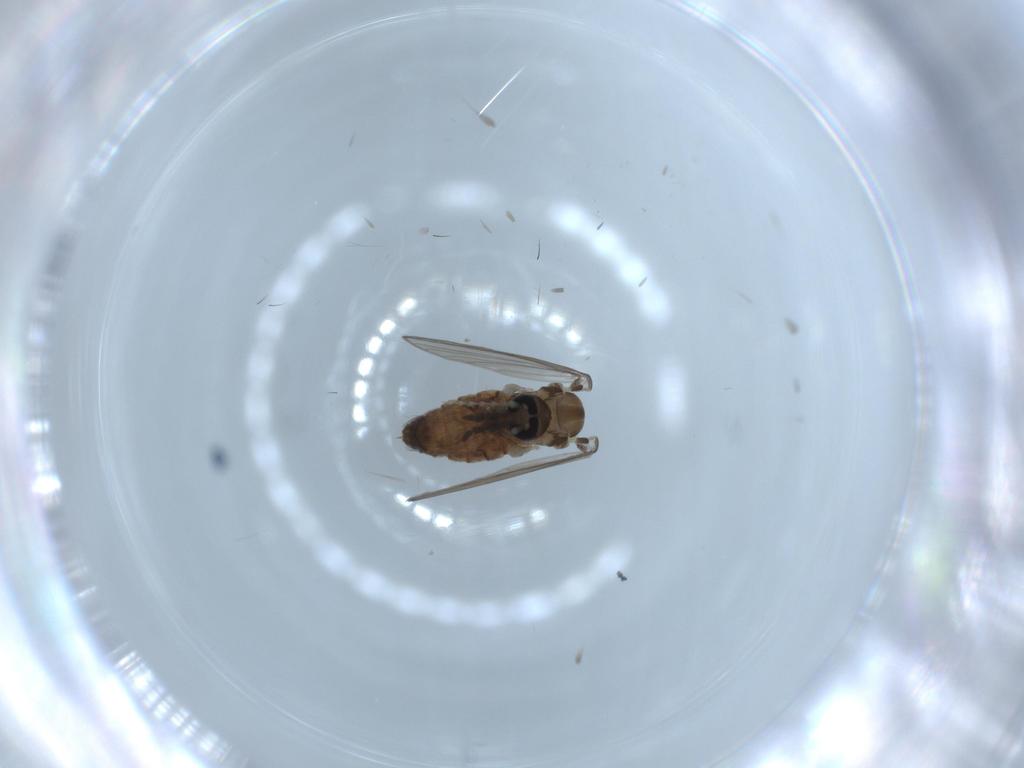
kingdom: Animalia
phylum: Arthropoda
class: Insecta
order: Diptera
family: Psychodidae
